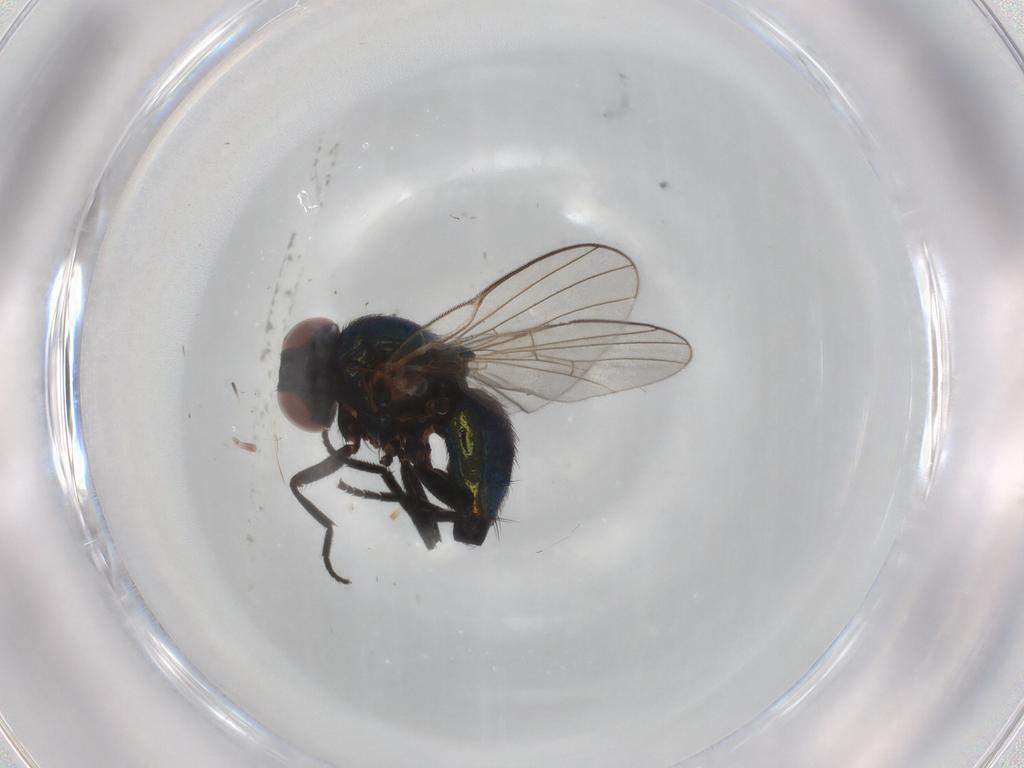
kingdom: Animalia
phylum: Arthropoda
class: Insecta
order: Diptera
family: Agromyzidae
